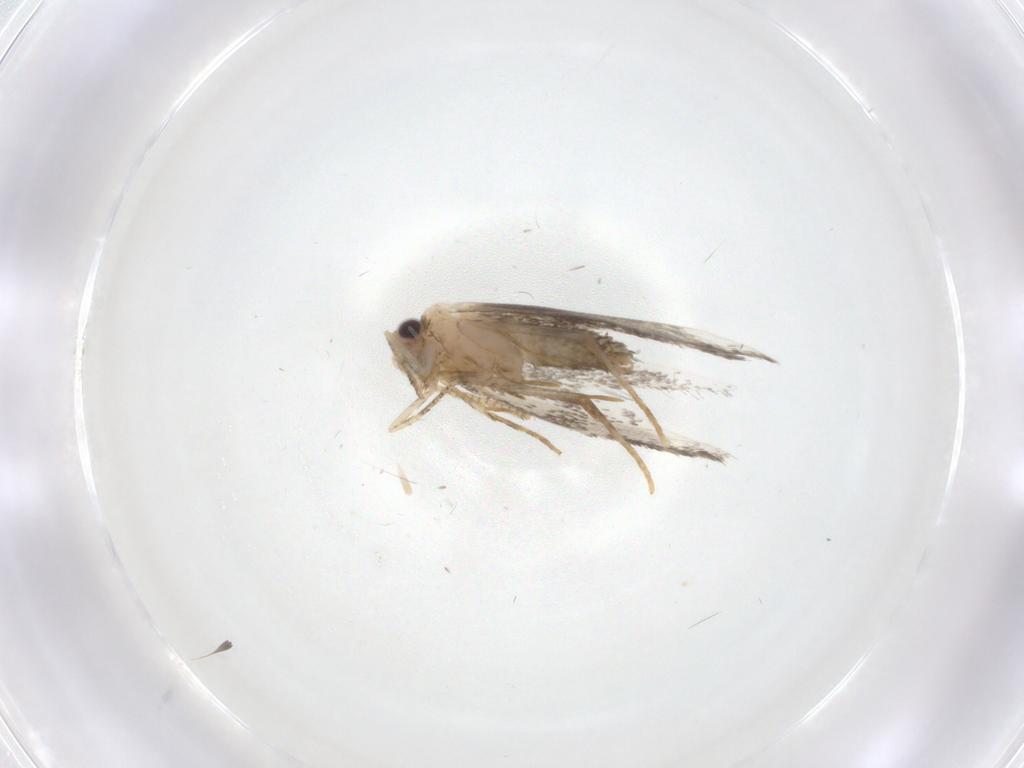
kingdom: Animalia
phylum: Arthropoda
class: Insecta
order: Lepidoptera
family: Tineidae
